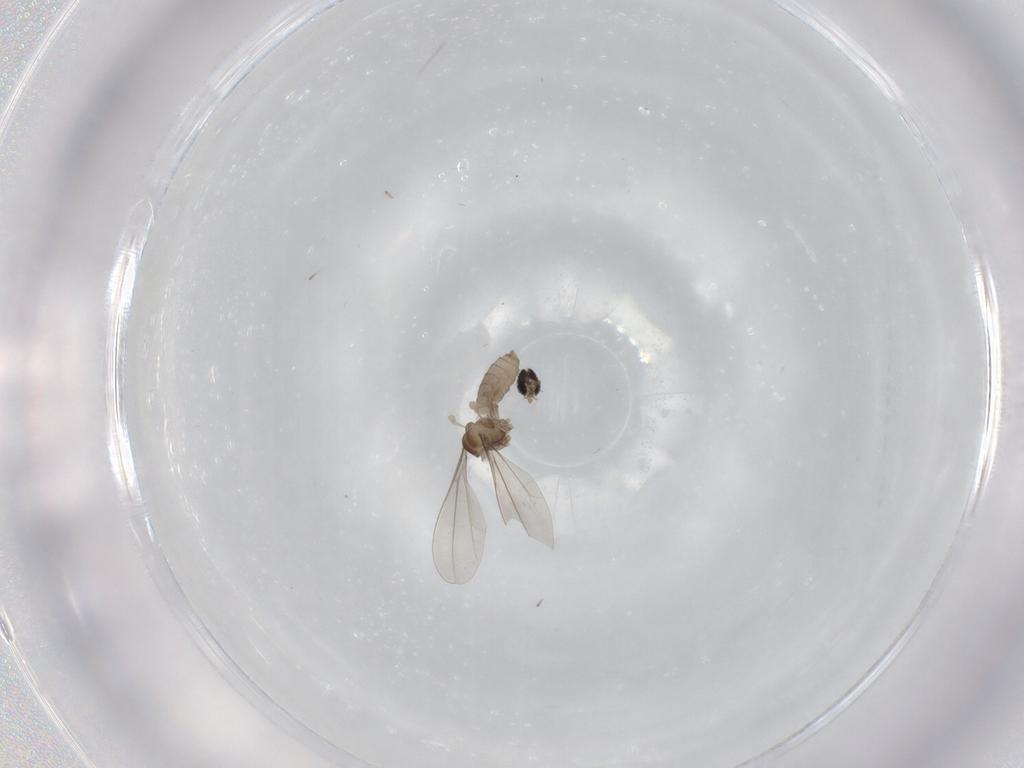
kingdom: Animalia
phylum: Arthropoda
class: Insecta
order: Diptera
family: Cecidomyiidae
